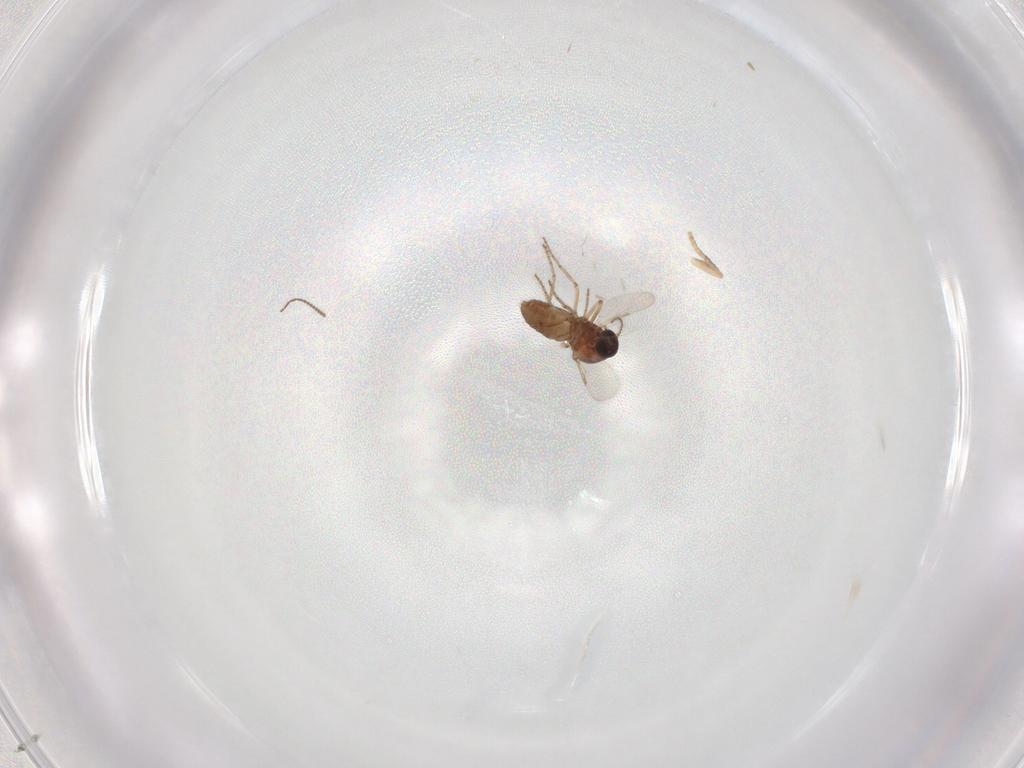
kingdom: Animalia
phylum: Arthropoda
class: Insecta
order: Diptera
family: Ceratopogonidae
